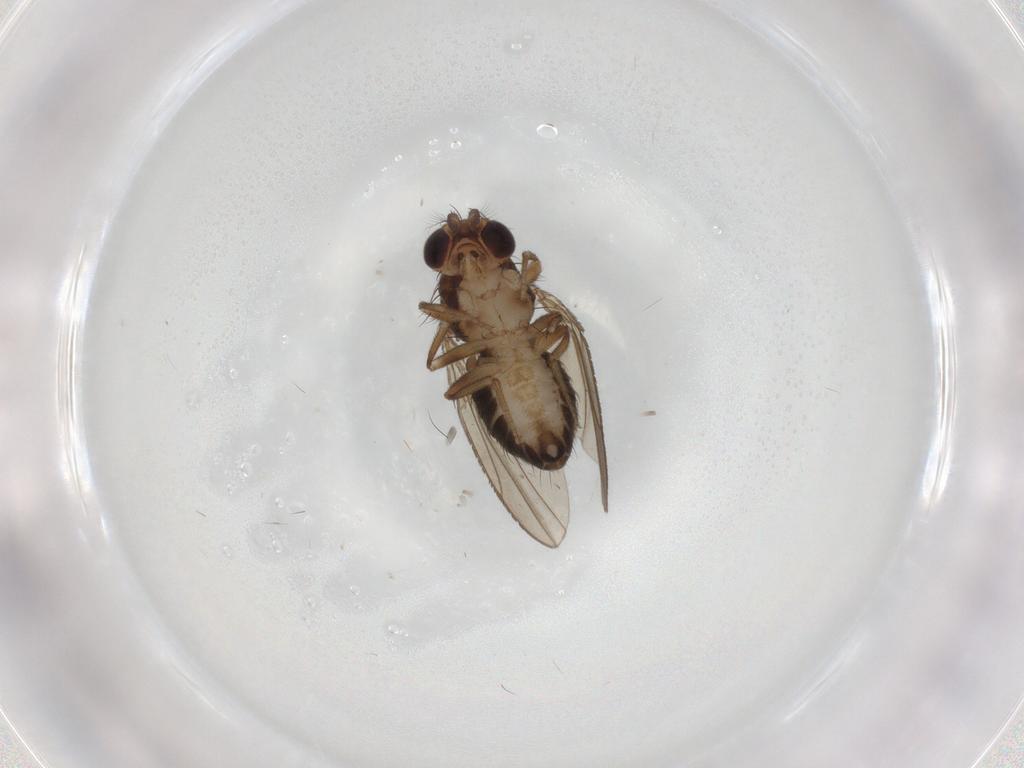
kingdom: Animalia
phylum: Arthropoda
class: Insecta
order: Diptera
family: Drosophilidae
